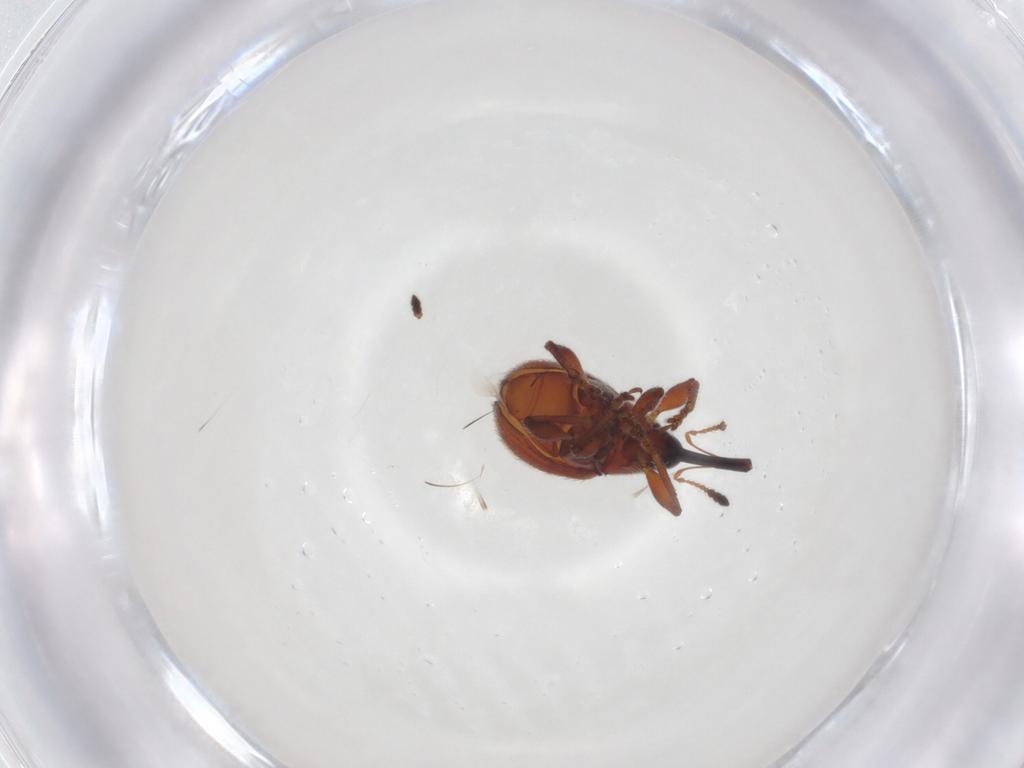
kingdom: Animalia
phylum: Arthropoda
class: Insecta
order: Coleoptera
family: Brentidae
